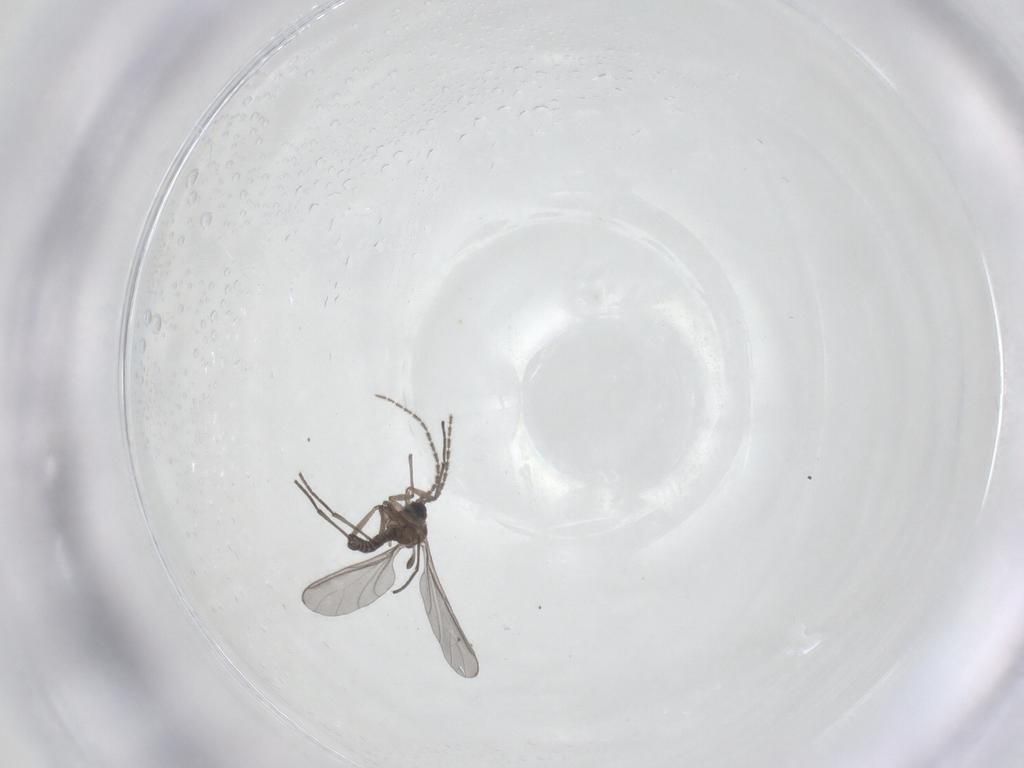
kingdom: Animalia
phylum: Arthropoda
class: Insecta
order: Diptera
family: Sciaridae
